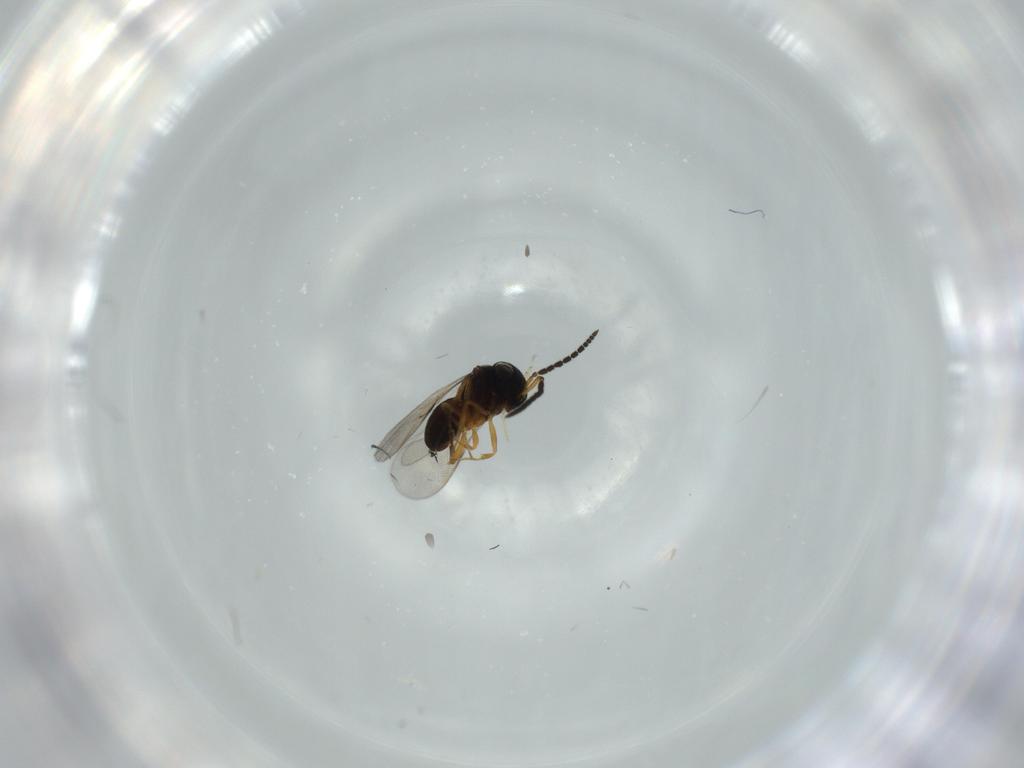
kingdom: Animalia
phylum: Arthropoda
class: Insecta
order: Coleoptera
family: Curculionidae
